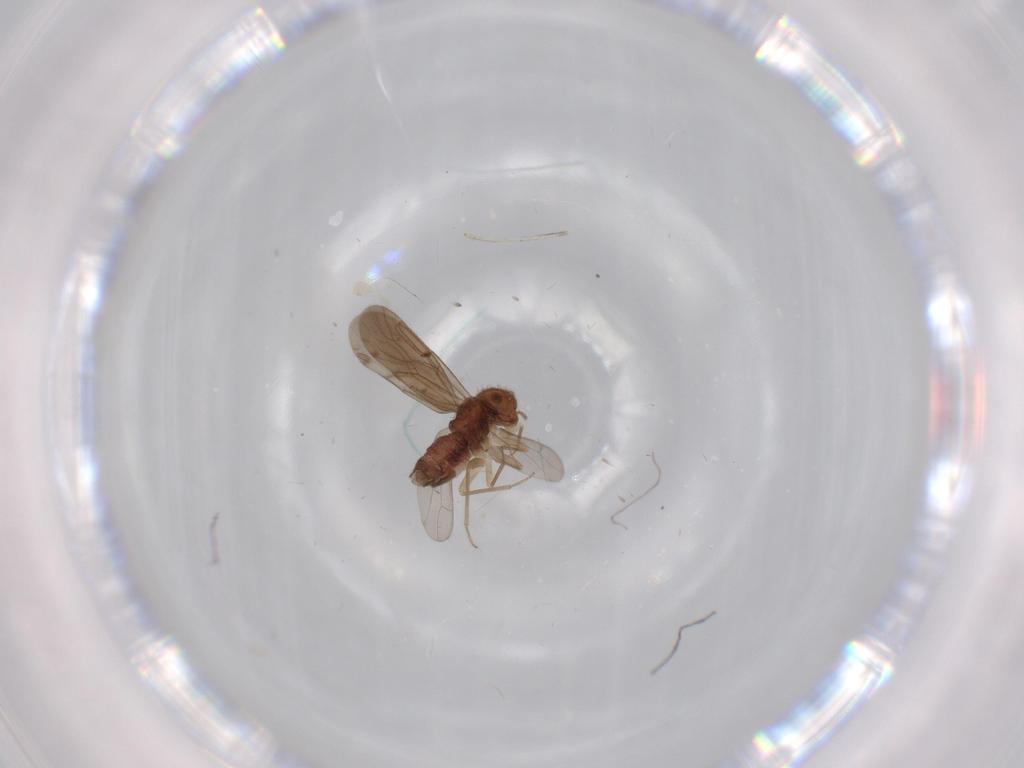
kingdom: Animalia
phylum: Arthropoda
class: Insecta
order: Psocodea
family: Ectopsocidae
